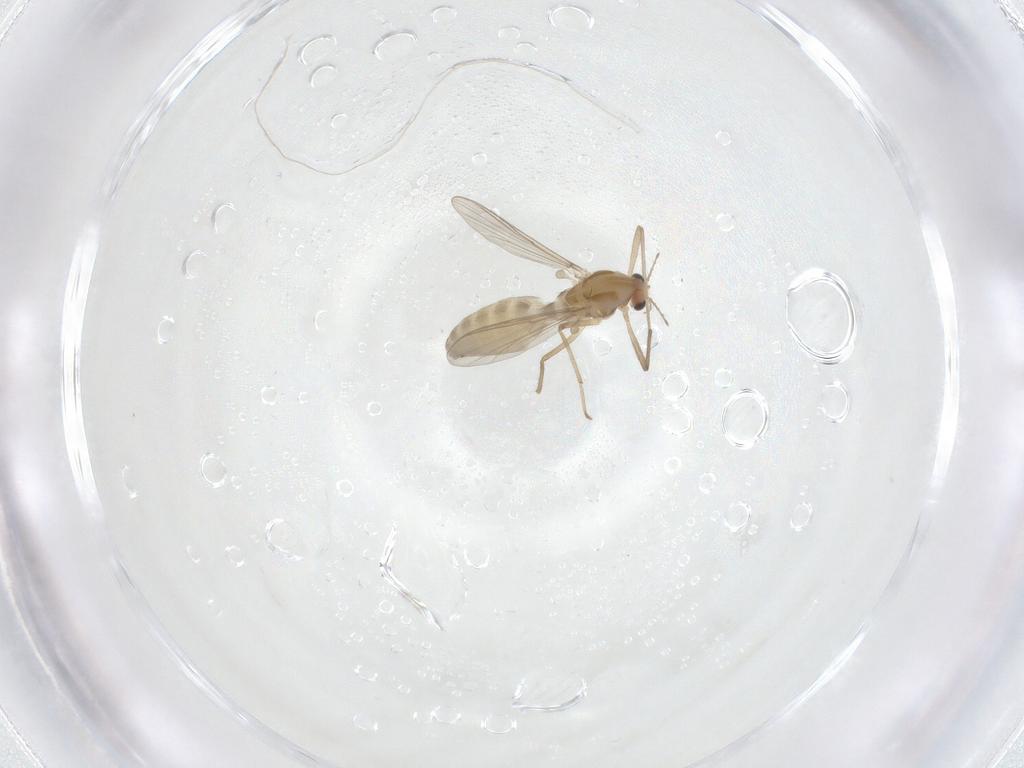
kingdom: Animalia
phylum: Arthropoda
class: Insecta
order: Diptera
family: Chironomidae
